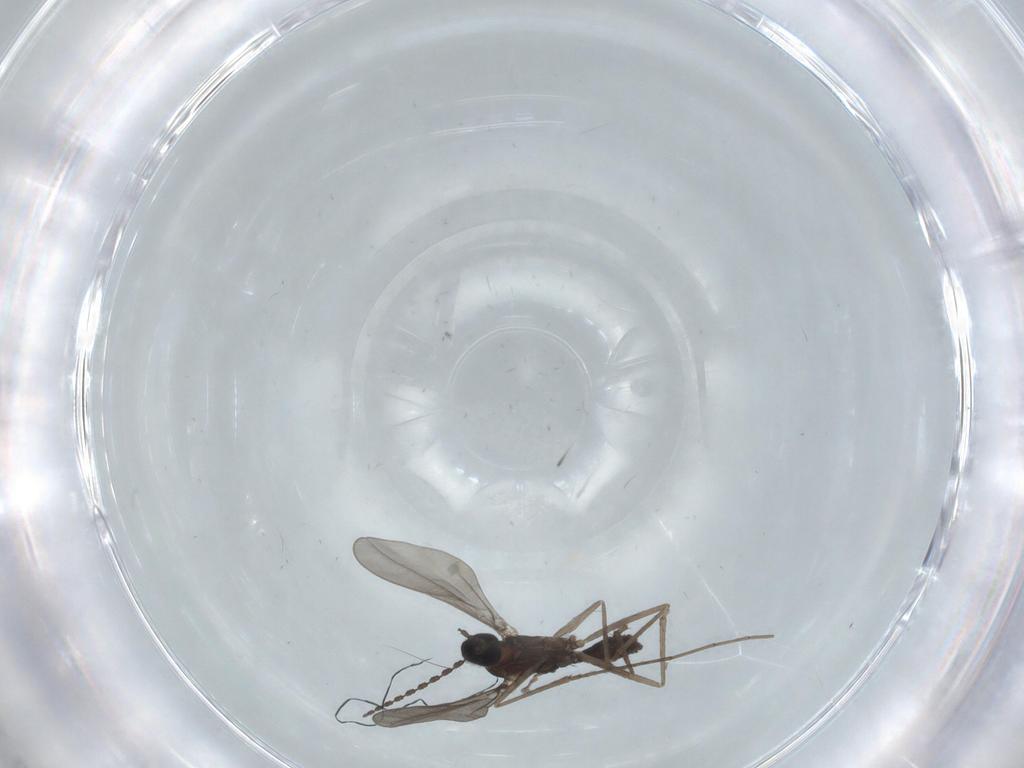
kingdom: Animalia
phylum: Arthropoda
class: Insecta
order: Diptera
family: Cecidomyiidae
